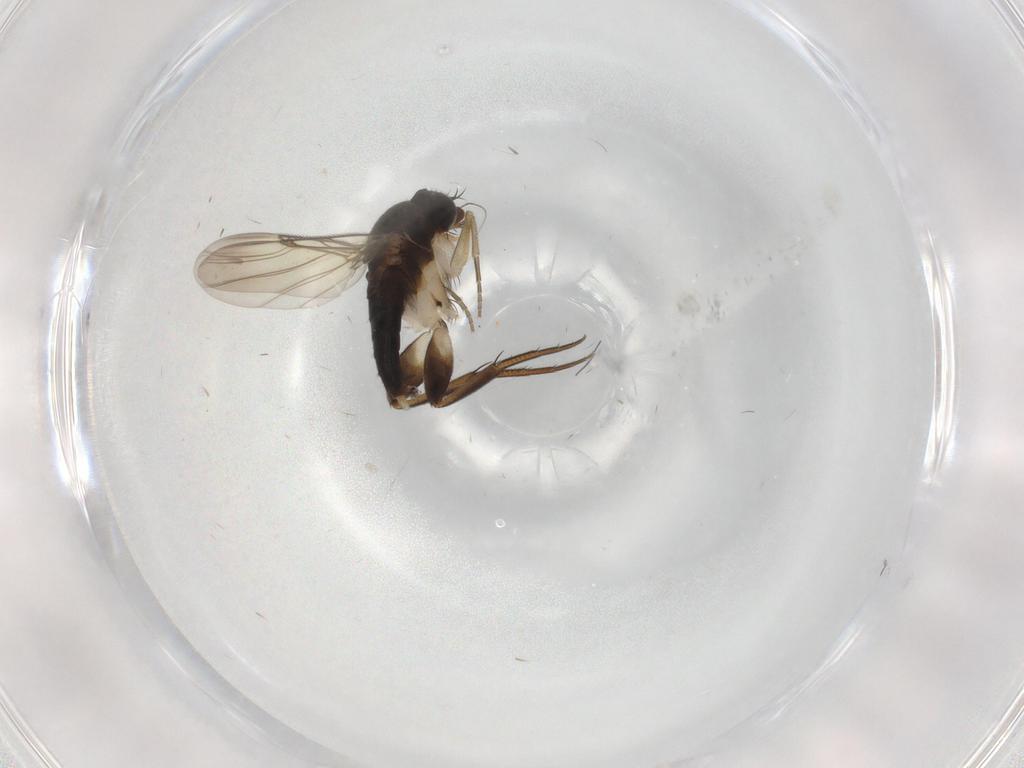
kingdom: Animalia
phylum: Arthropoda
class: Insecta
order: Diptera
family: Phoridae
